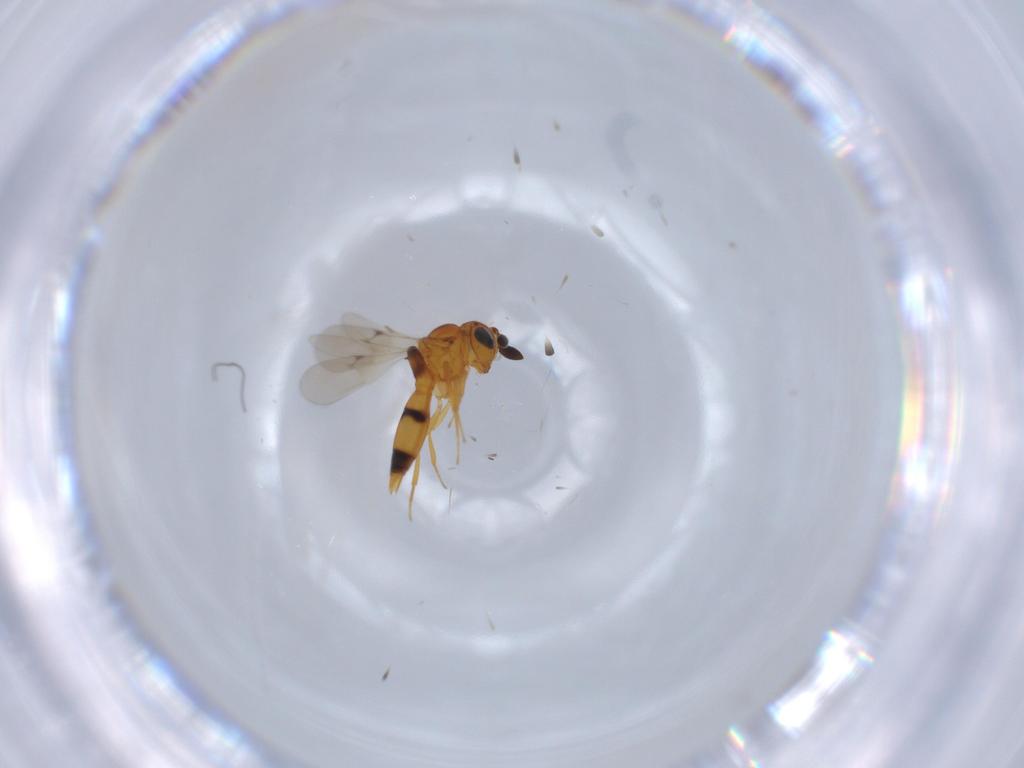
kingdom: Animalia
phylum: Arthropoda
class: Insecta
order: Hymenoptera
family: Scelionidae
